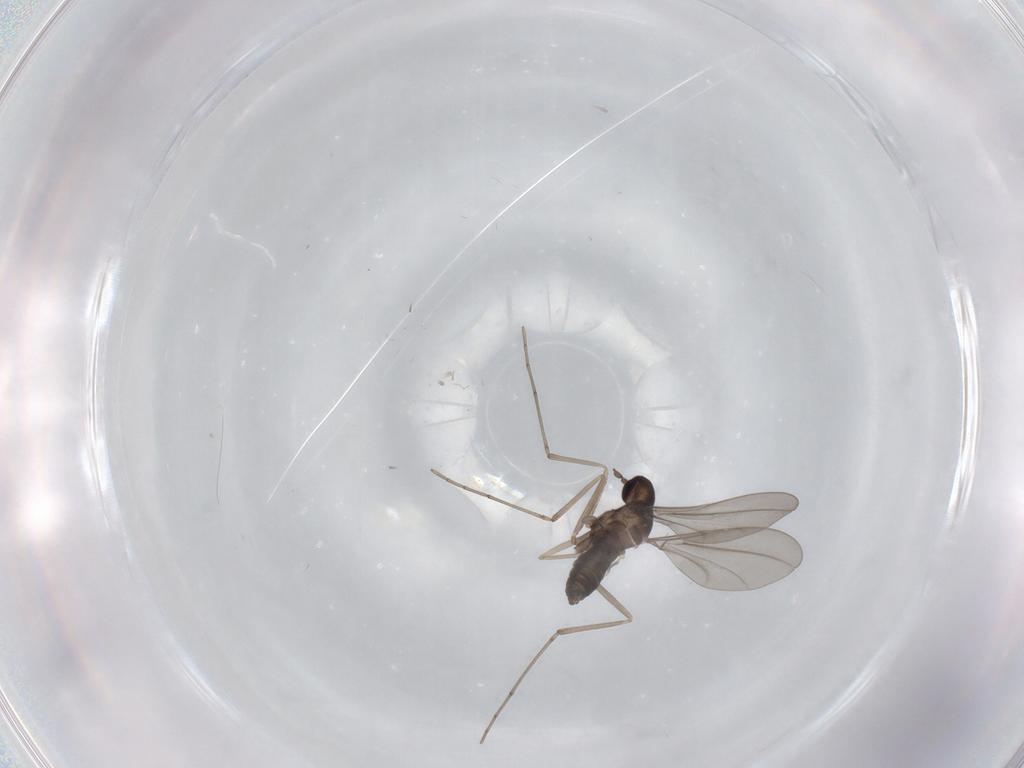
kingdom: Animalia
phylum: Arthropoda
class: Insecta
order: Diptera
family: Cecidomyiidae
